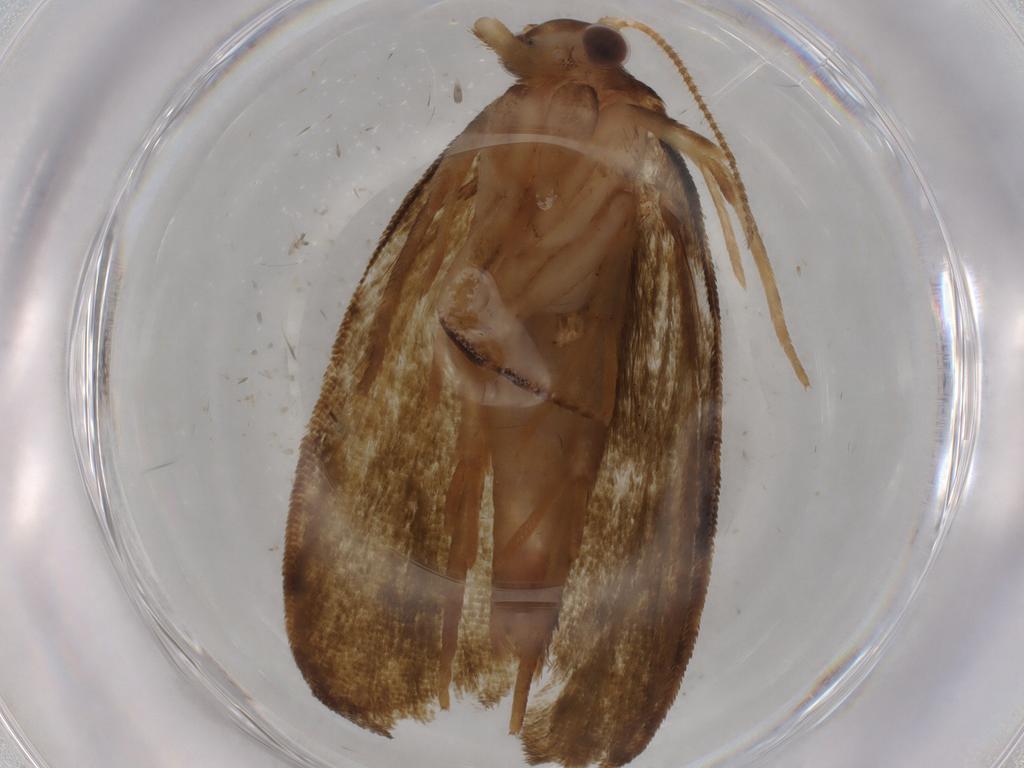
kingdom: Animalia
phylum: Arthropoda
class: Insecta
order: Lepidoptera
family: Geometridae
